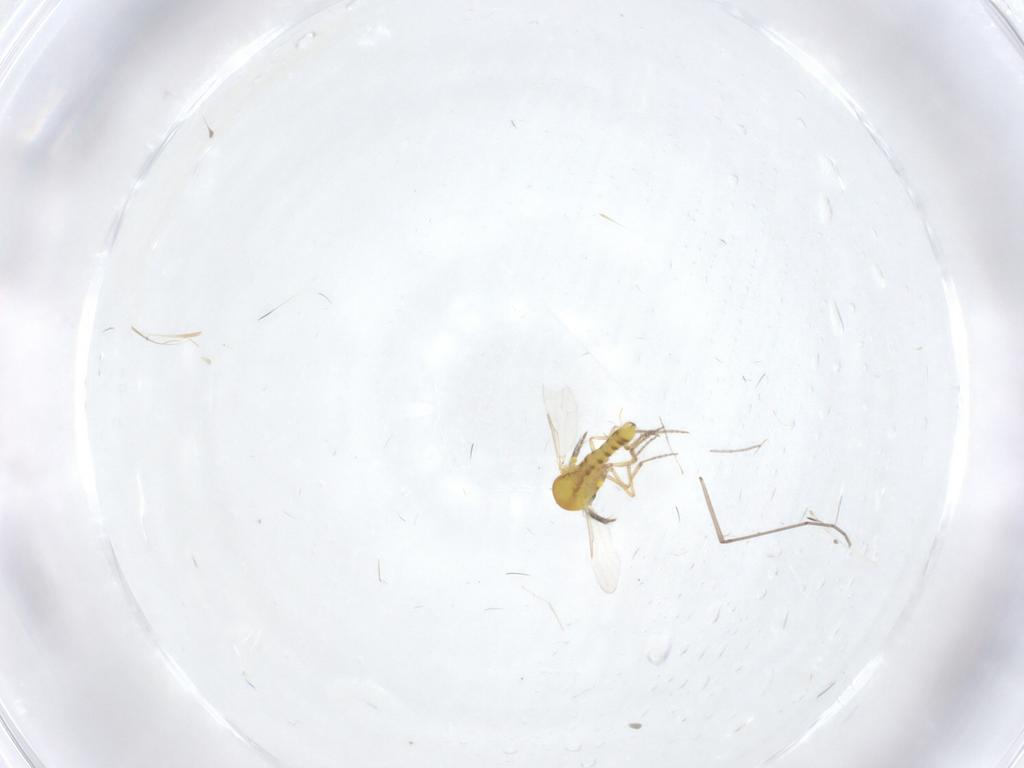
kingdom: Animalia
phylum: Arthropoda
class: Insecta
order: Diptera
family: Ceratopogonidae
